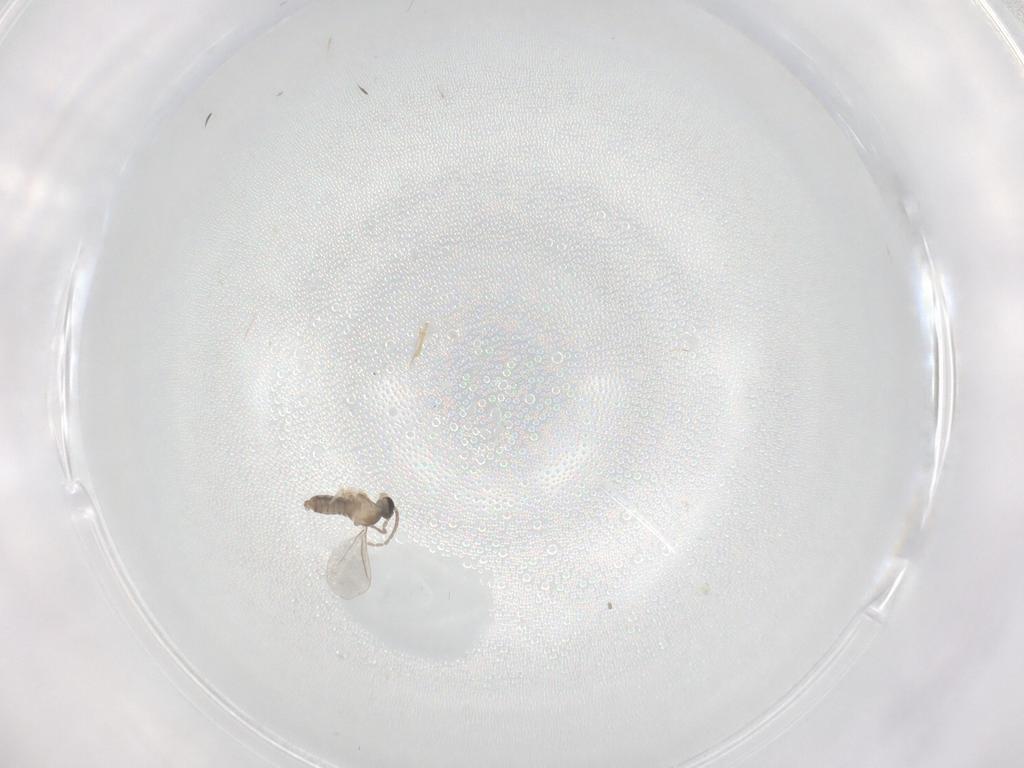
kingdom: Animalia
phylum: Arthropoda
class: Insecta
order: Diptera
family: Cecidomyiidae
